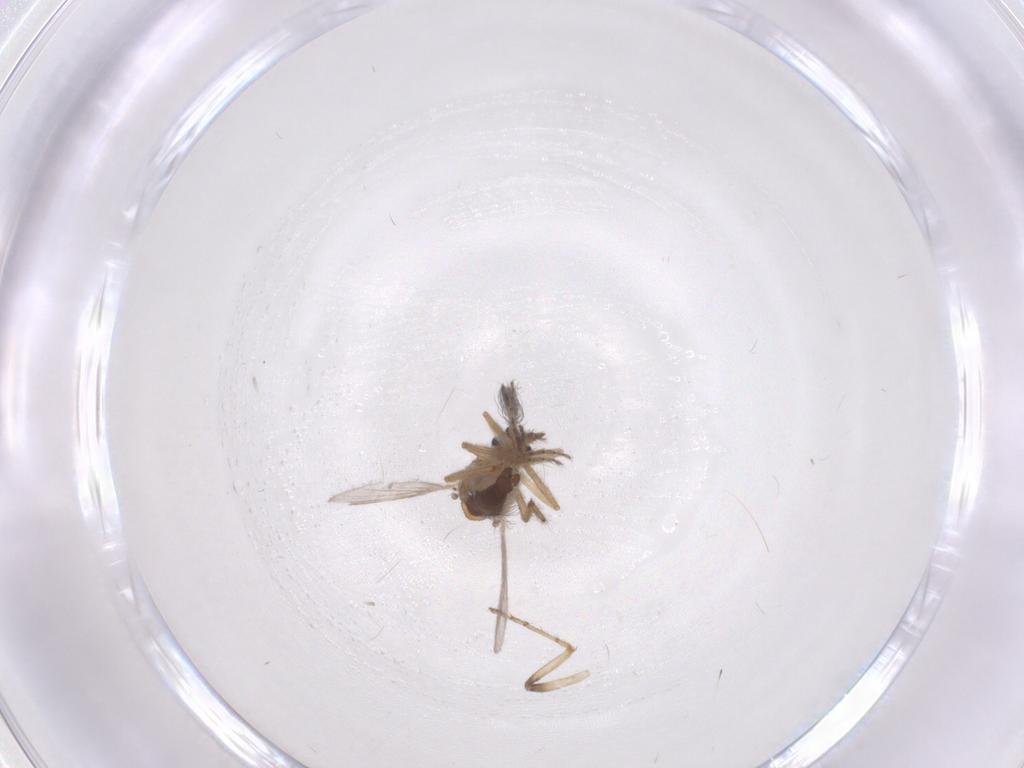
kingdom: Animalia
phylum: Arthropoda
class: Insecta
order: Diptera
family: Ceratopogonidae
